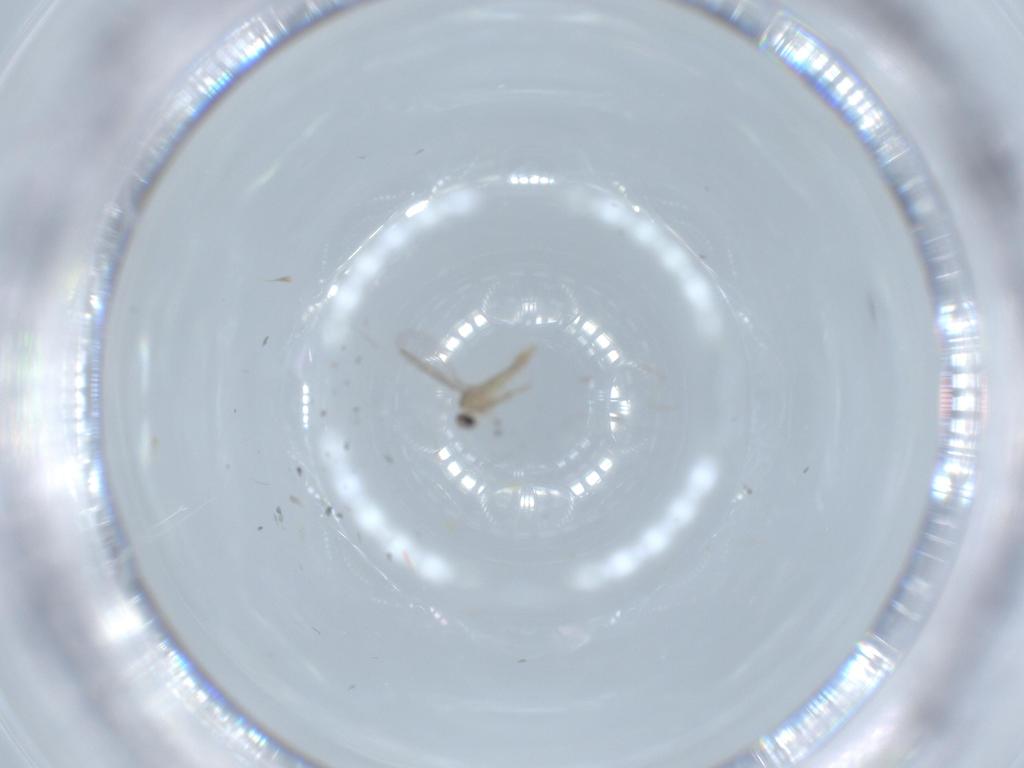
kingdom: Animalia
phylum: Arthropoda
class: Insecta
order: Diptera
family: Cecidomyiidae
